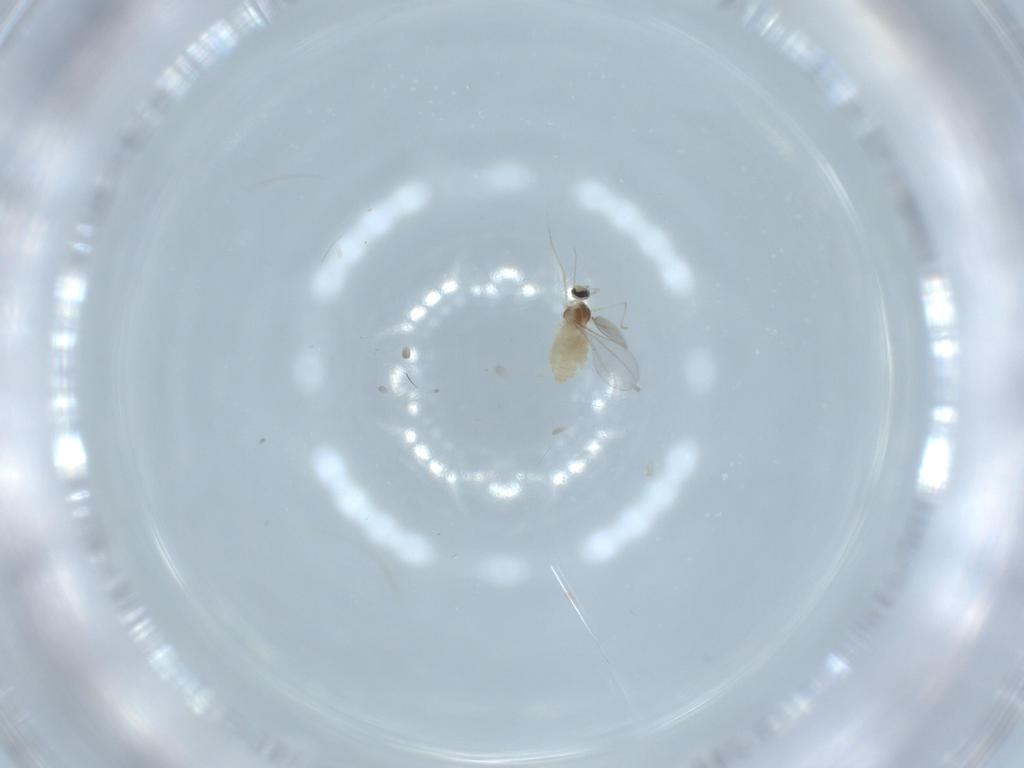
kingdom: Animalia
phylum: Arthropoda
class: Insecta
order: Diptera
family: Cecidomyiidae
